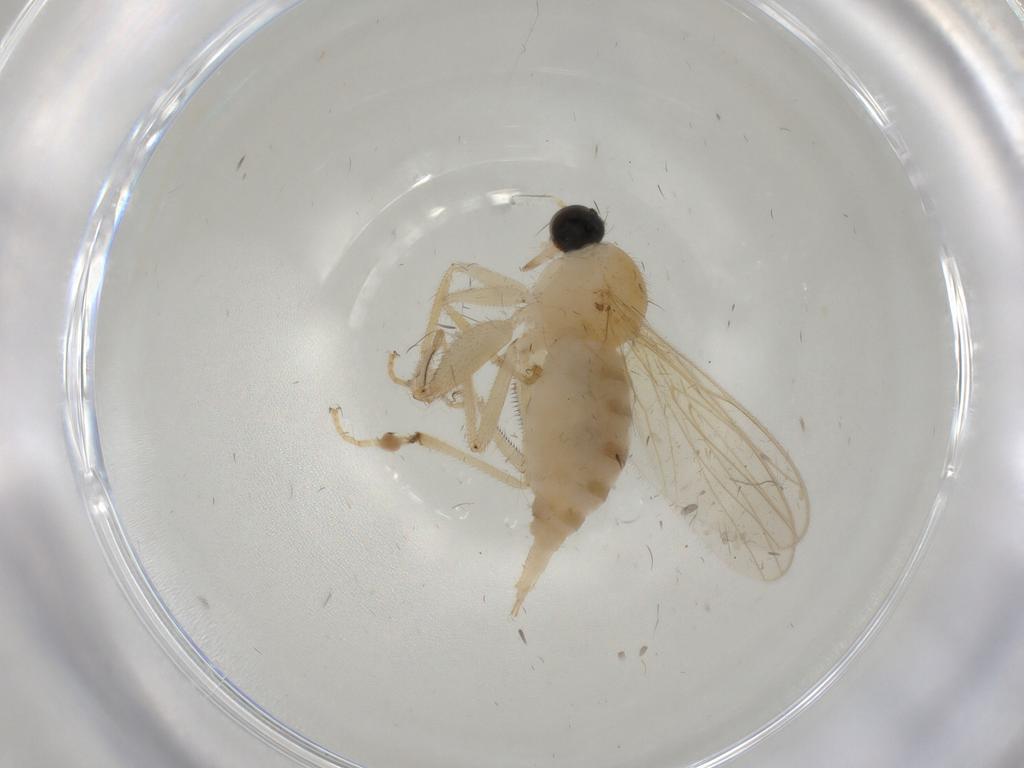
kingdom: Animalia
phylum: Arthropoda
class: Insecta
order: Diptera
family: Hybotidae
